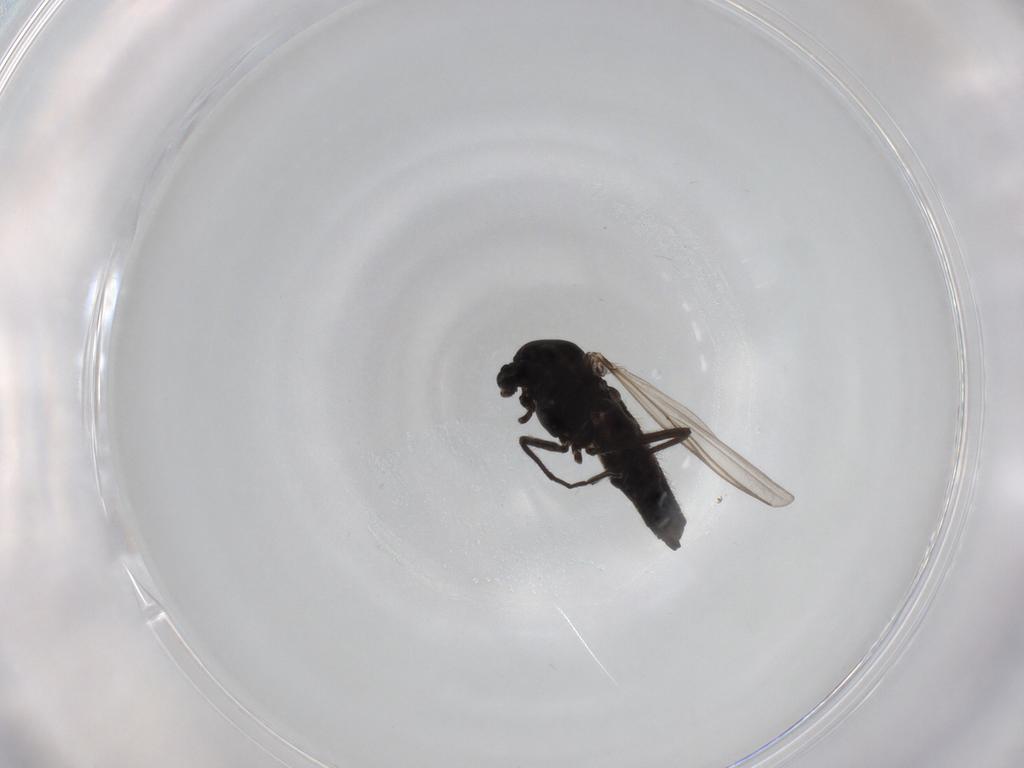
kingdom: Animalia
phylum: Arthropoda
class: Insecta
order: Diptera
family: Chironomidae
